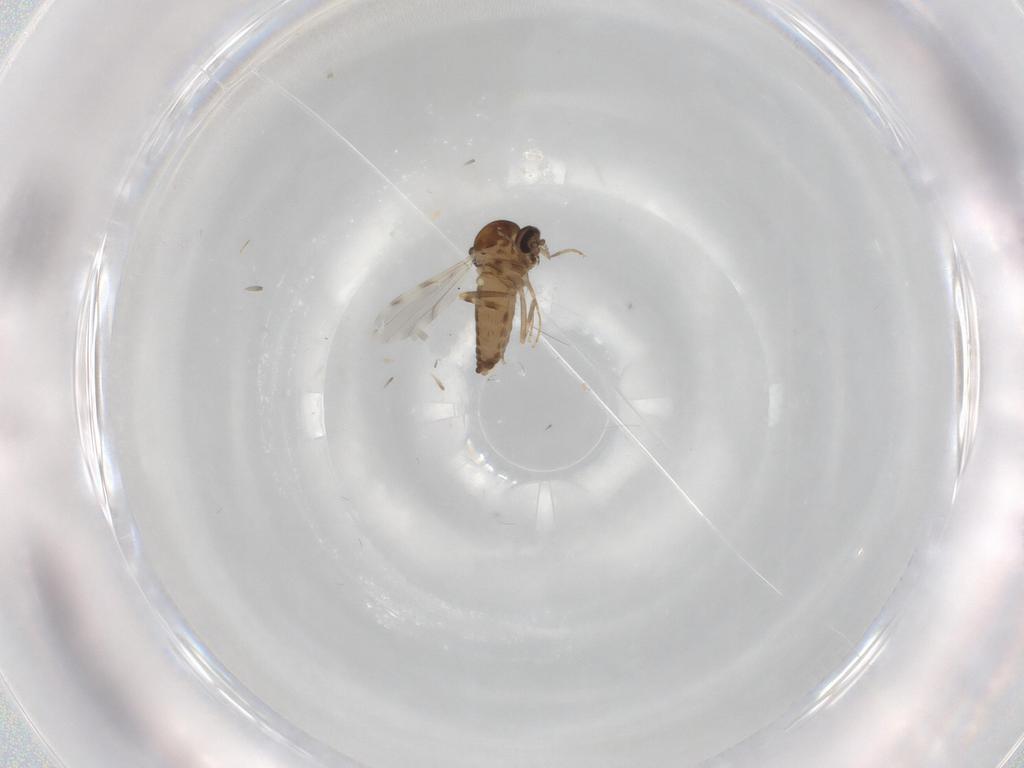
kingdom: Animalia
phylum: Arthropoda
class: Insecta
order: Diptera
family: Ceratopogonidae
